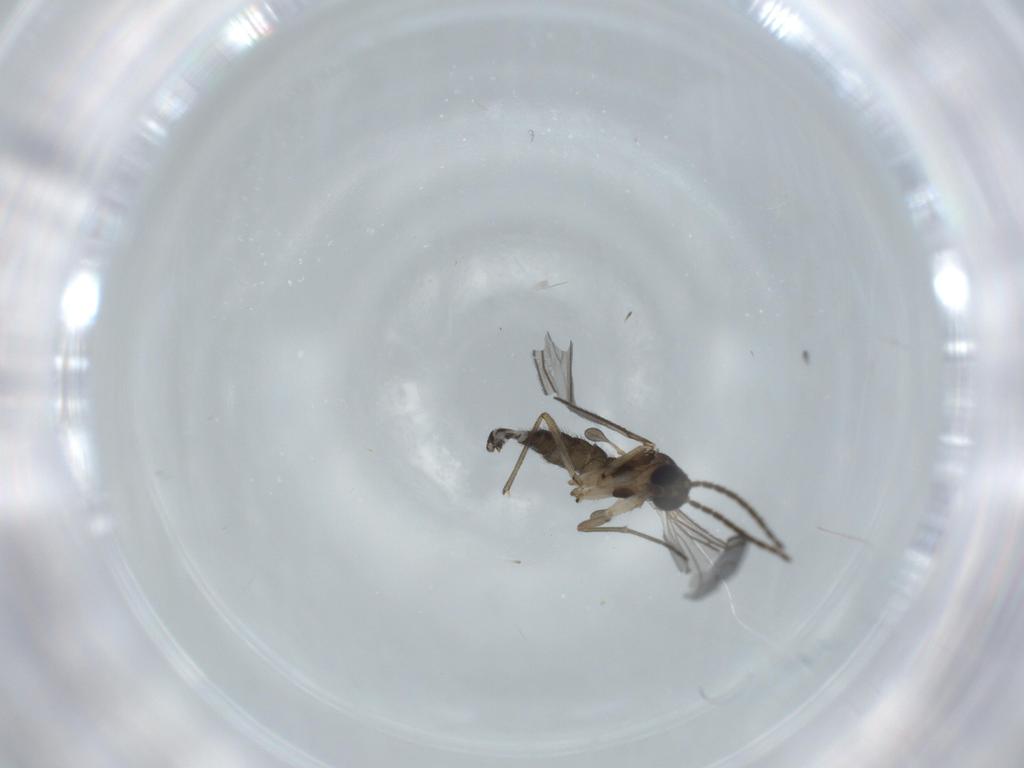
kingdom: Animalia
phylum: Arthropoda
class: Insecta
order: Diptera
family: Sciaridae
